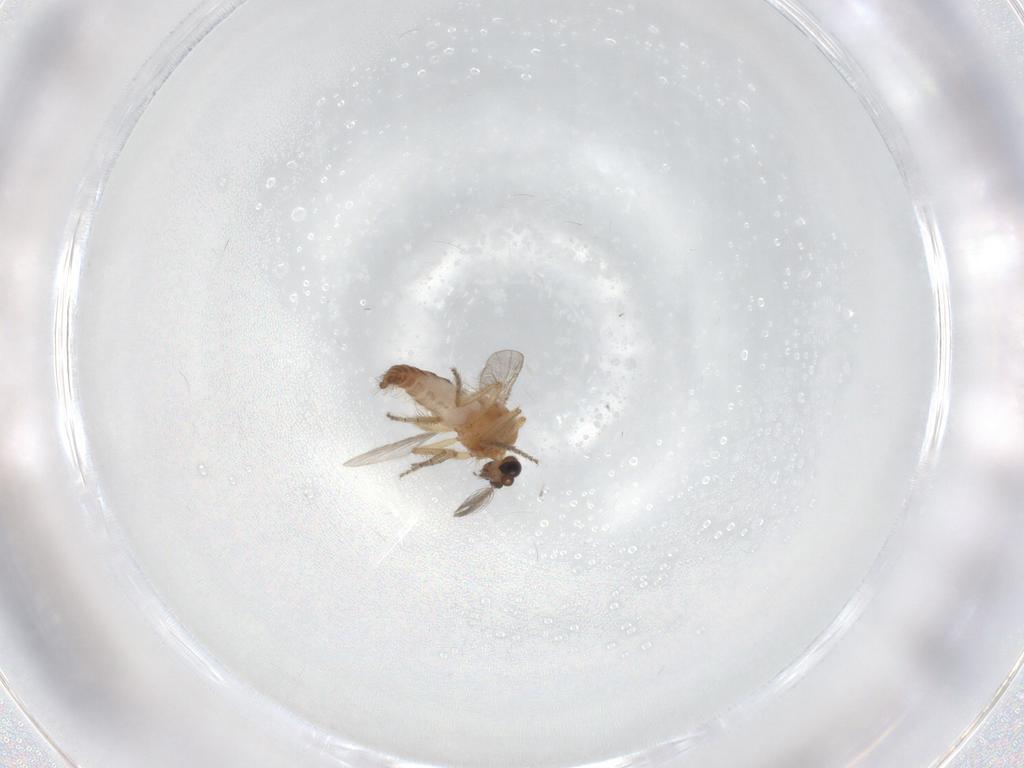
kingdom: Animalia
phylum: Arthropoda
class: Insecta
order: Diptera
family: Ceratopogonidae
